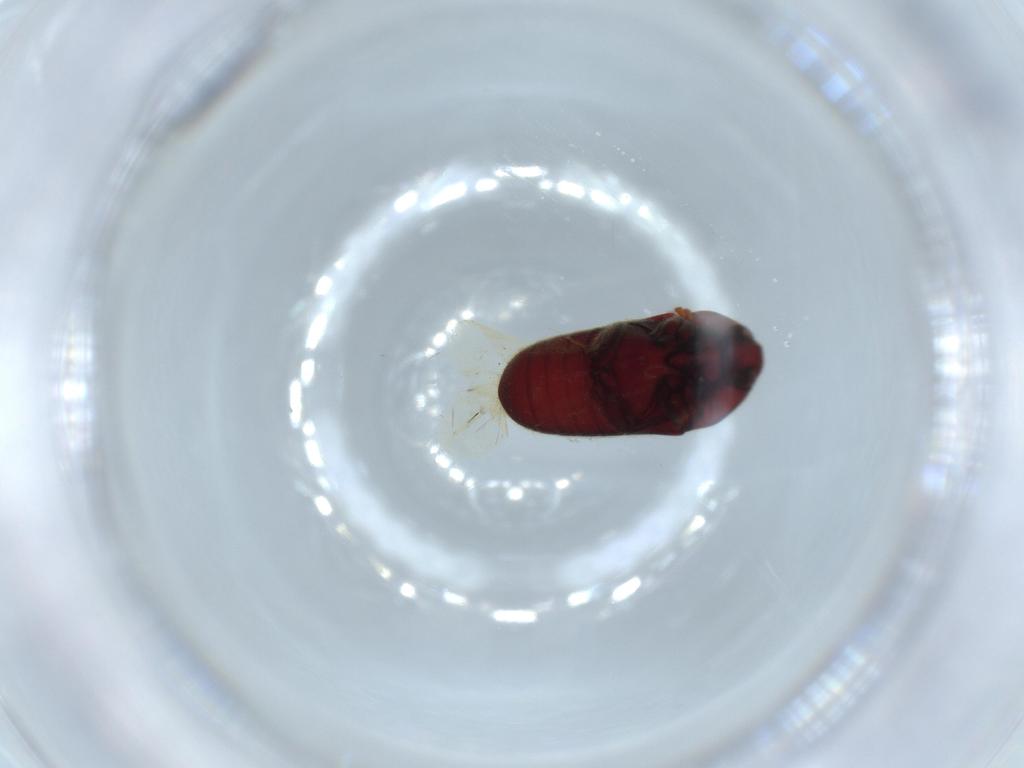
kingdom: Animalia
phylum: Arthropoda
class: Insecta
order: Coleoptera
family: Throscidae
